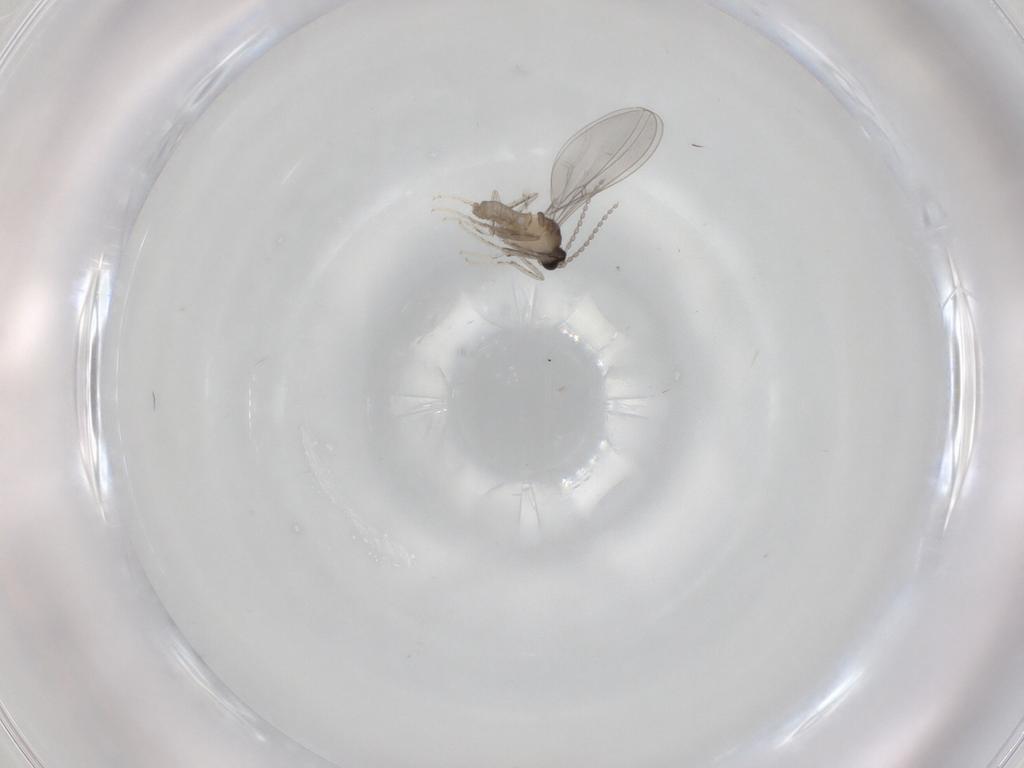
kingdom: Animalia
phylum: Arthropoda
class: Insecta
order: Diptera
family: Cecidomyiidae
